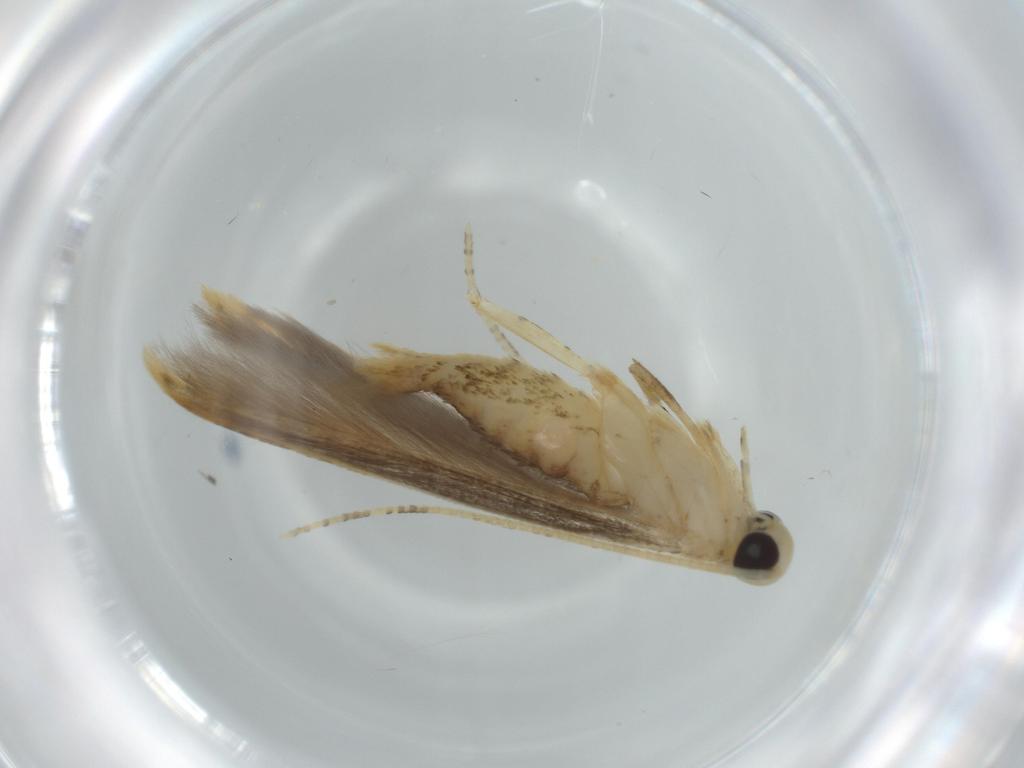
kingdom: Animalia
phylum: Arthropoda
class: Insecta
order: Lepidoptera
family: Batrachedridae
